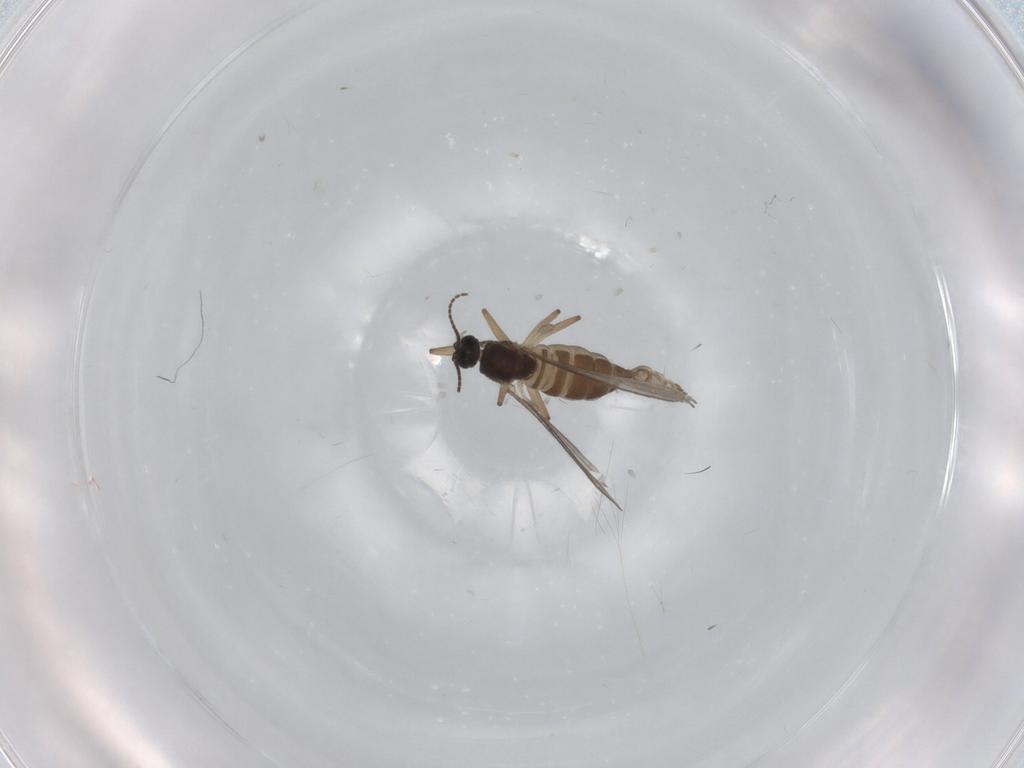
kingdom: Animalia
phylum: Arthropoda
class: Insecta
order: Diptera
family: Sciaridae
